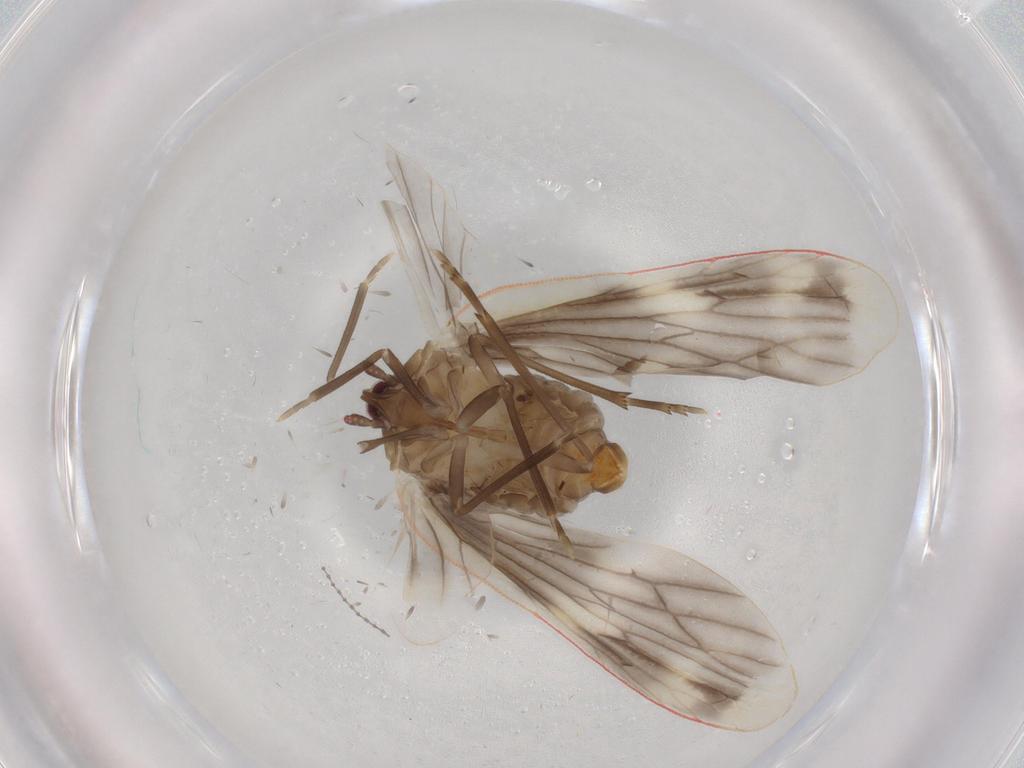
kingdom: Animalia
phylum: Arthropoda
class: Insecta
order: Hemiptera
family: Derbidae
